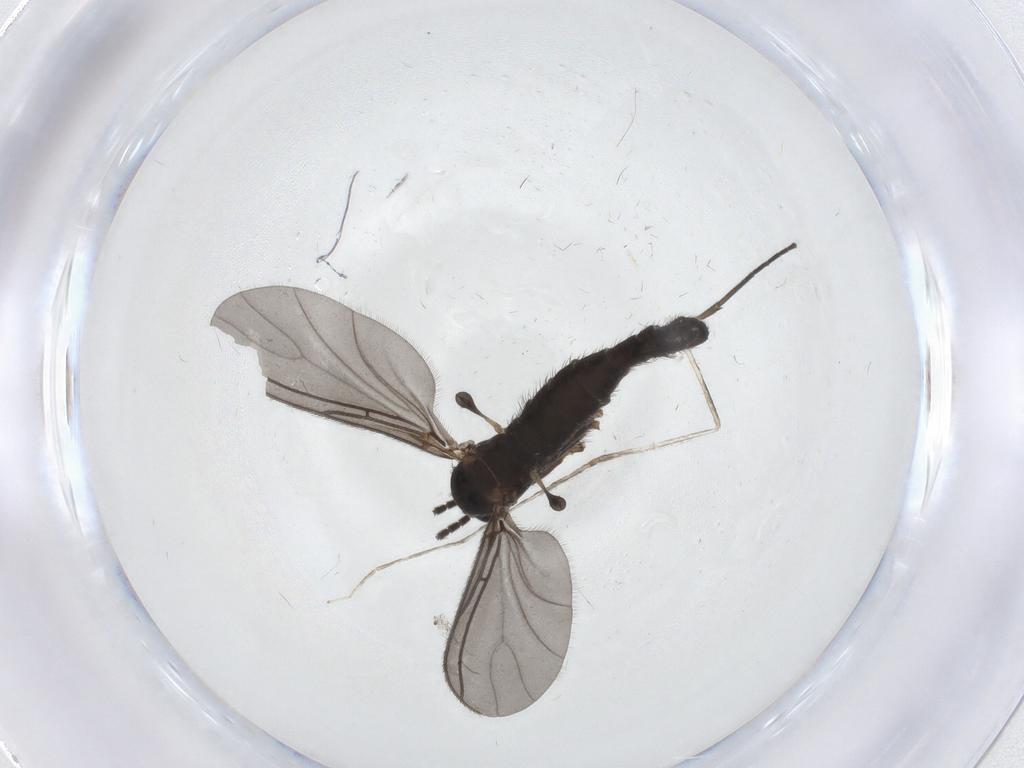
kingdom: Animalia
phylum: Arthropoda
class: Insecta
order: Diptera
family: Sciaridae
